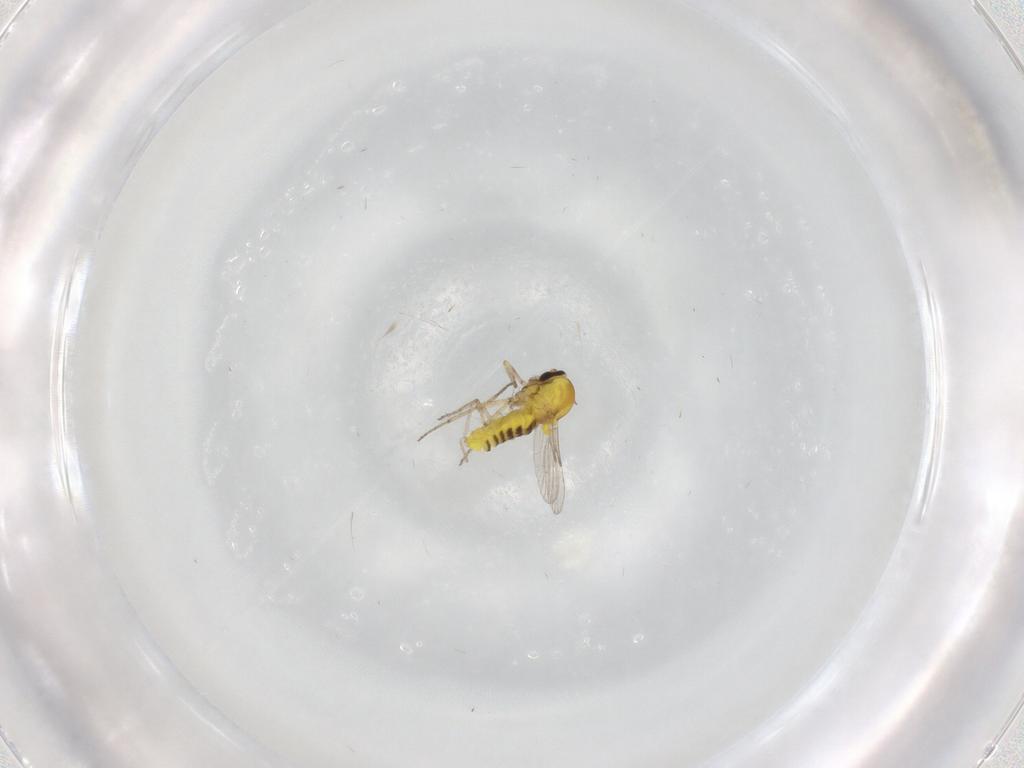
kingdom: Animalia
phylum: Arthropoda
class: Insecta
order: Diptera
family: Ceratopogonidae
